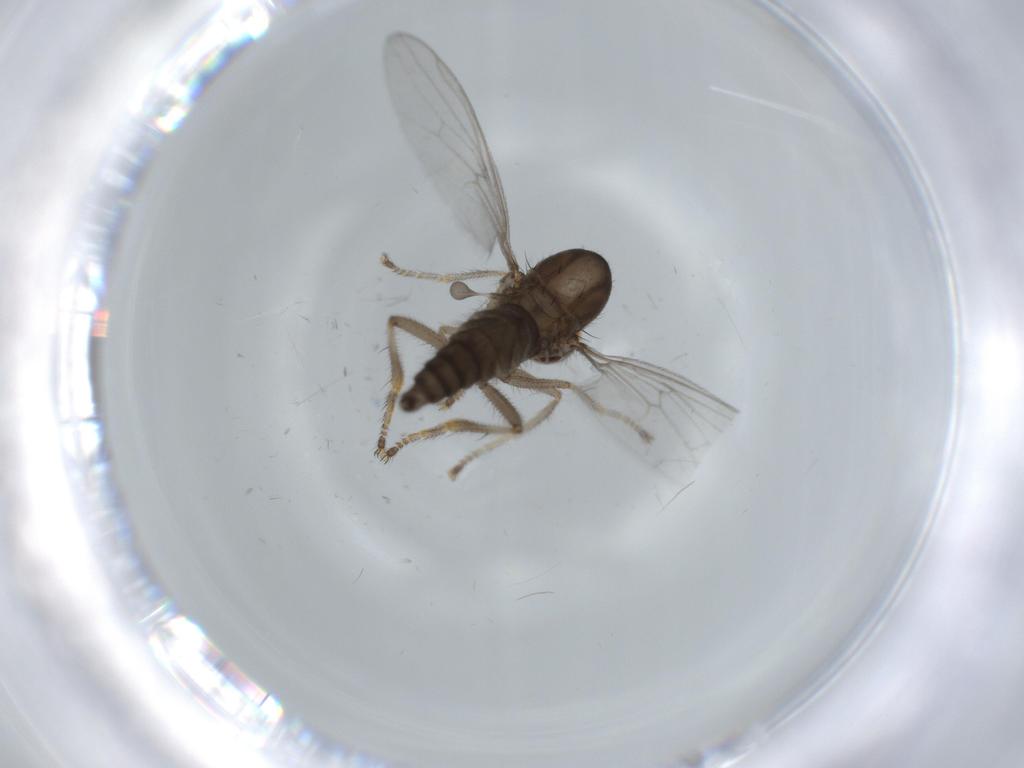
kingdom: Animalia
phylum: Arthropoda
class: Insecta
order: Diptera
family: Hybotidae
